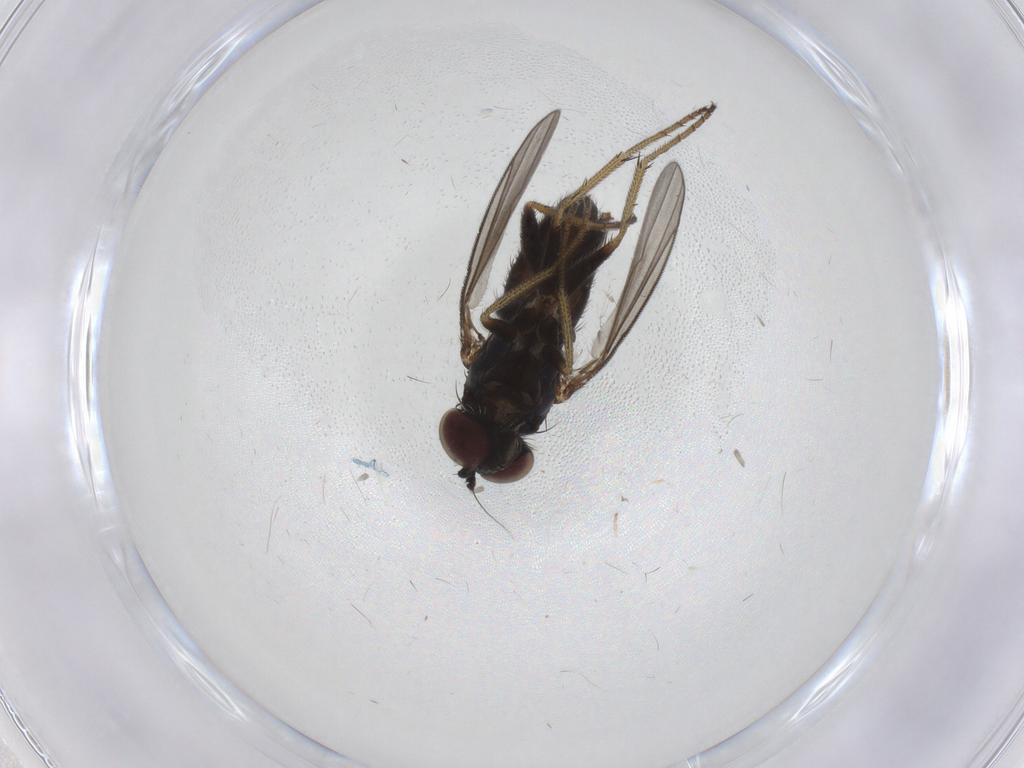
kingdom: Animalia
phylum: Arthropoda
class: Insecta
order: Diptera
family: Dolichopodidae
